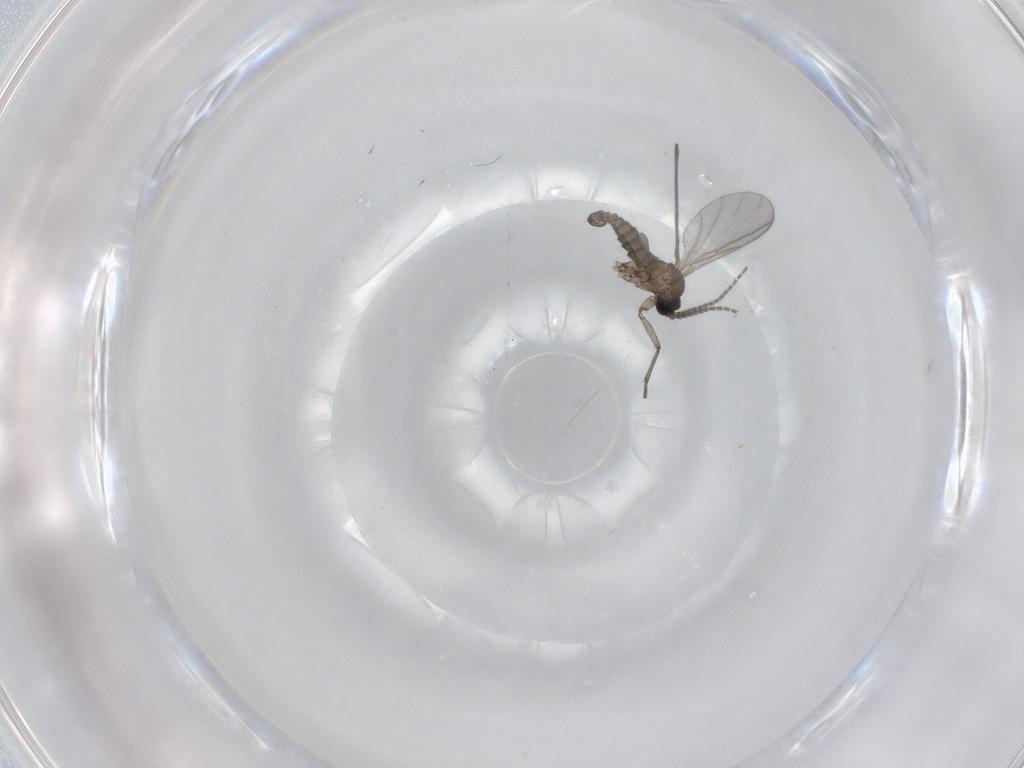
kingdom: Animalia
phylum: Arthropoda
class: Insecta
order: Diptera
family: Sciaridae
